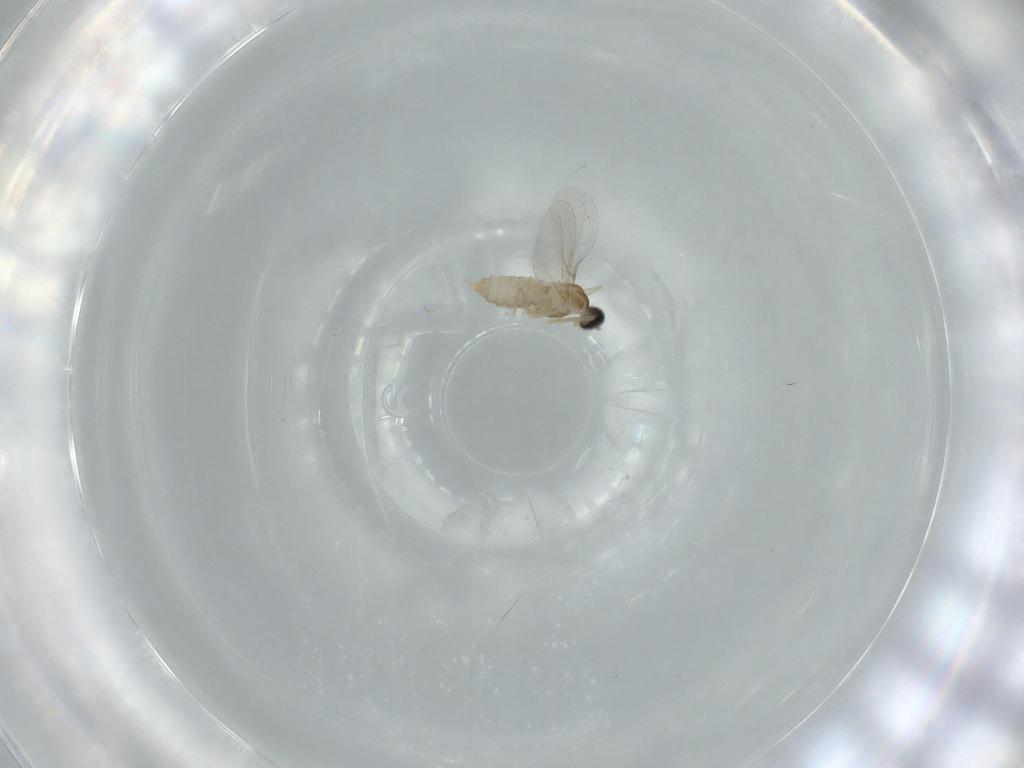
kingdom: Animalia
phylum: Arthropoda
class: Insecta
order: Diptera
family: Cecidomyiidae
